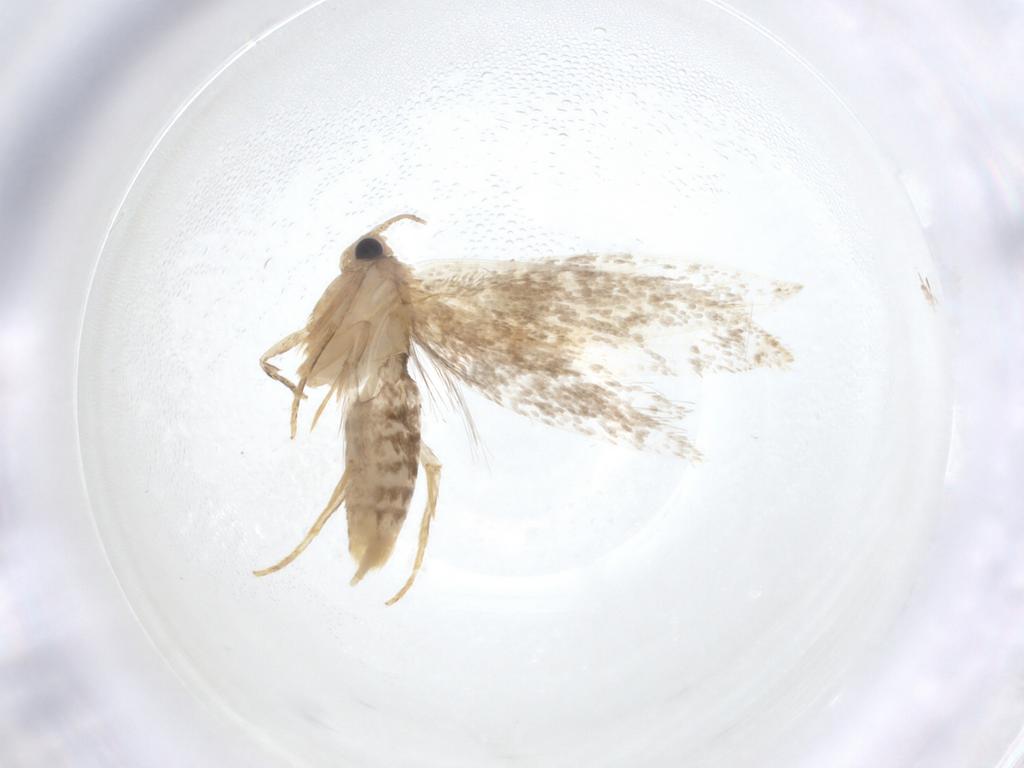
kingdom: Animalia
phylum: Arthropoda
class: Insecta
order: Lepidoptera
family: Tineidae
